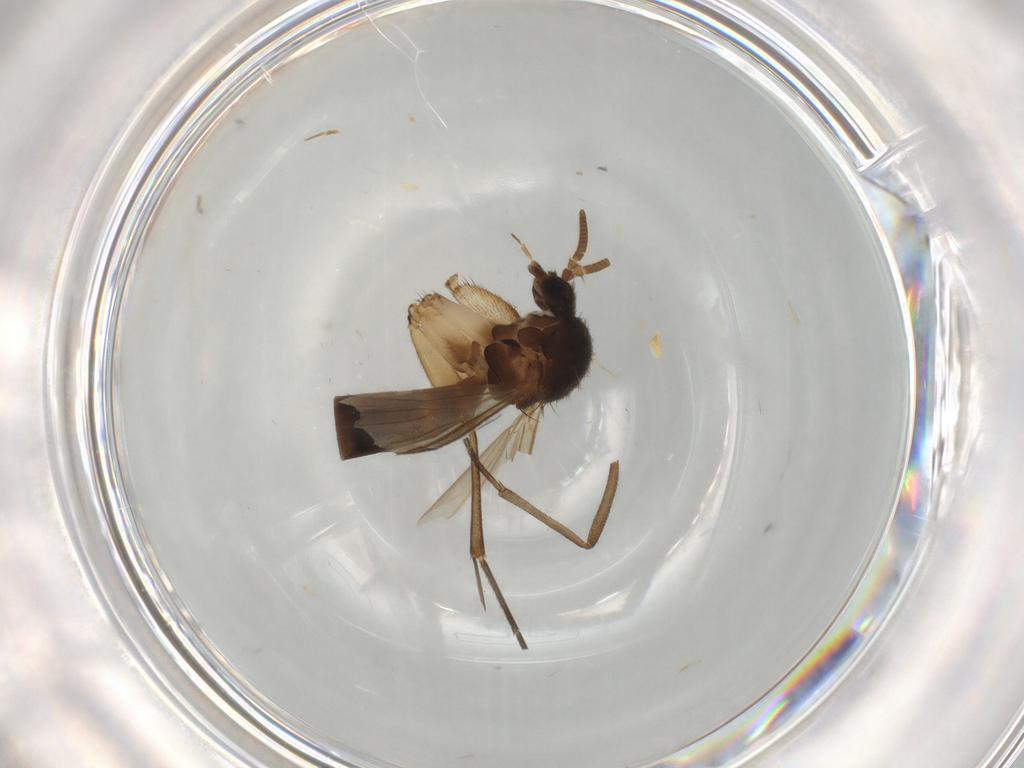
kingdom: Animalia
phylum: Arthropoda
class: Insecta
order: Diptera
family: Mycetophilidae
